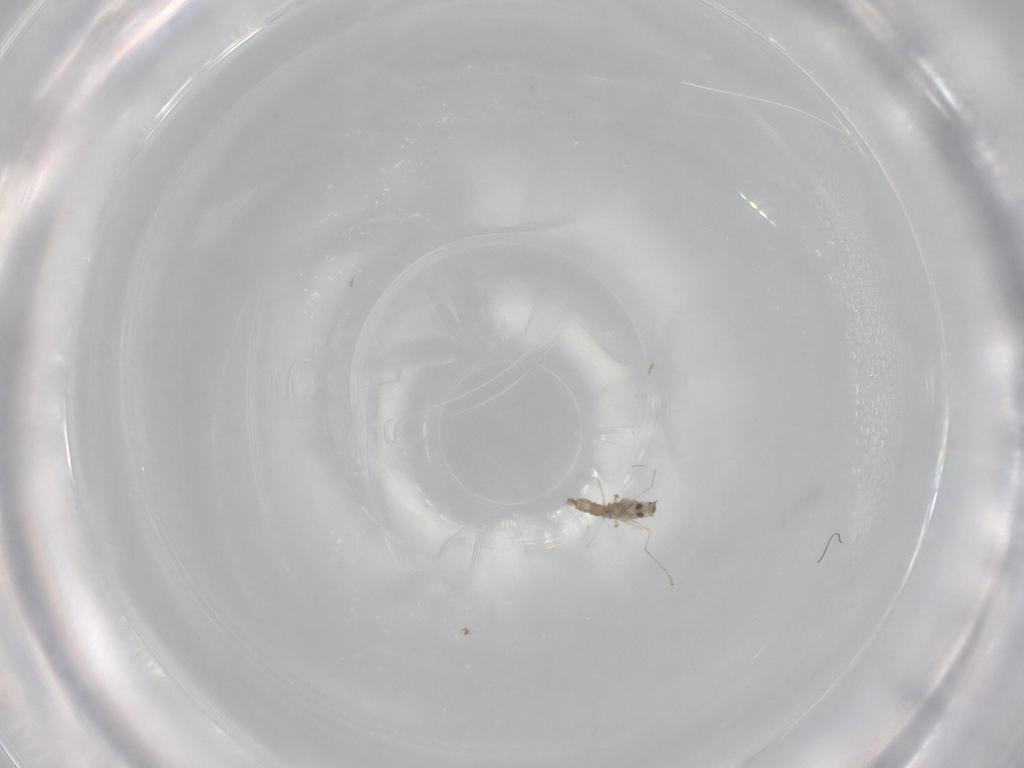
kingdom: Animalia
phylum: Arthropoda
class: Insecta
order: Diptera
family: Cecidomyiidae
